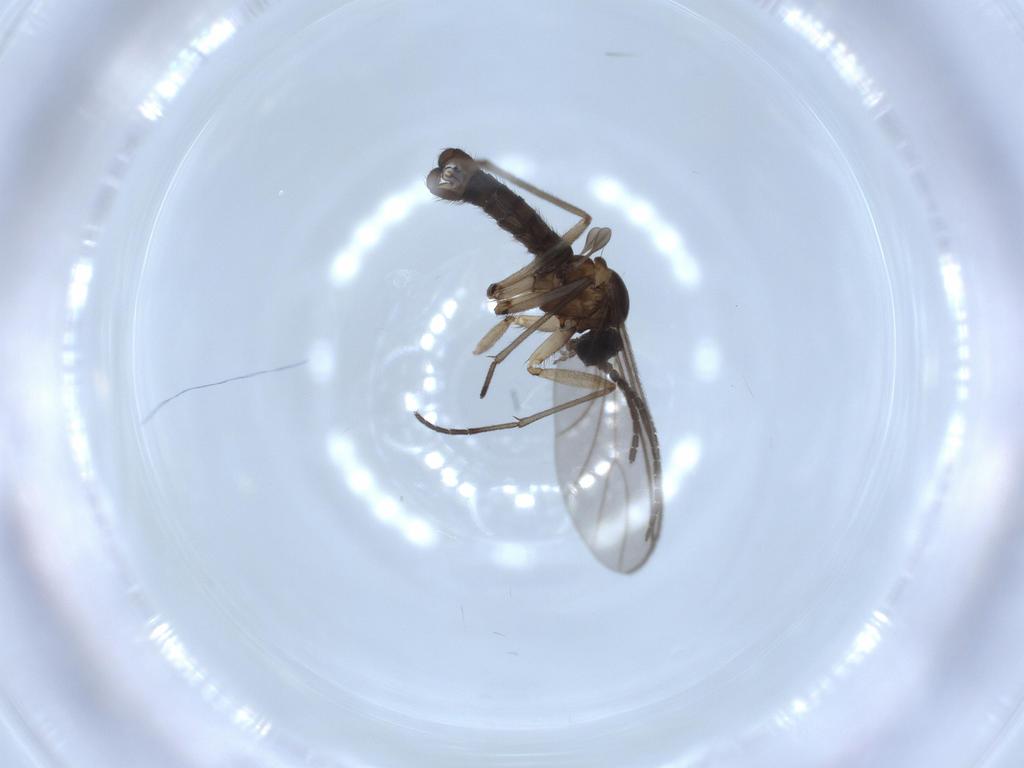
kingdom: Animalia
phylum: Arthropoda
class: Insecta
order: Diptera
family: Sciaridae
